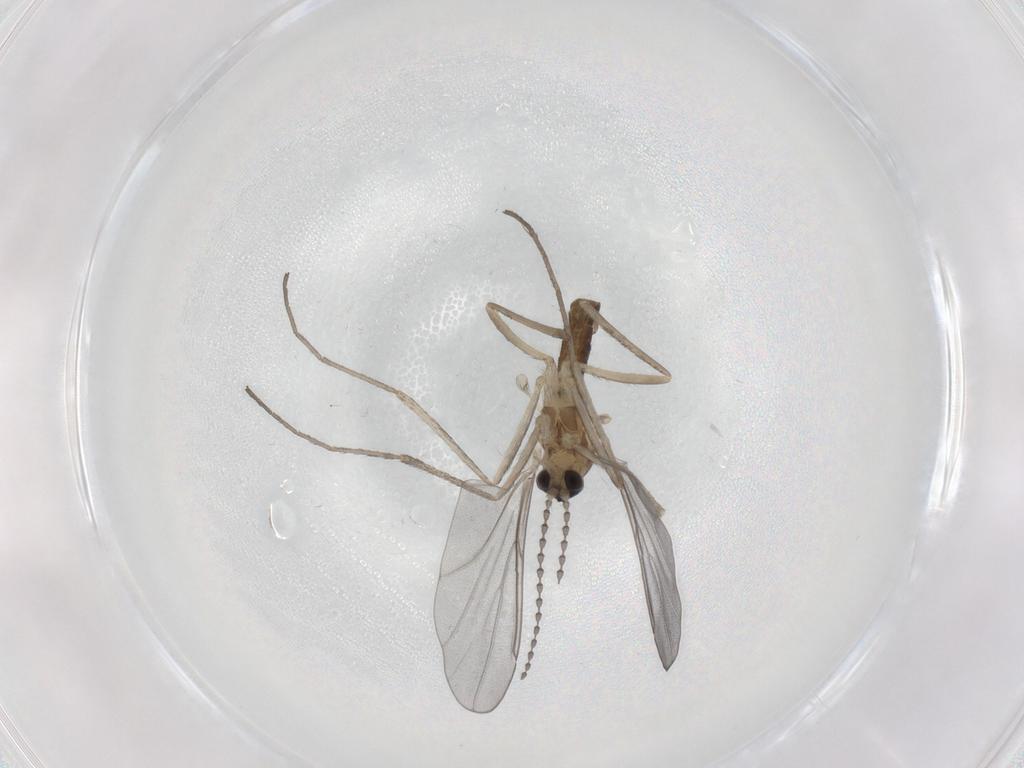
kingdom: Animalia
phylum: Arthropoda
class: Insecta
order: Diptera
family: Cecidomyiidae
